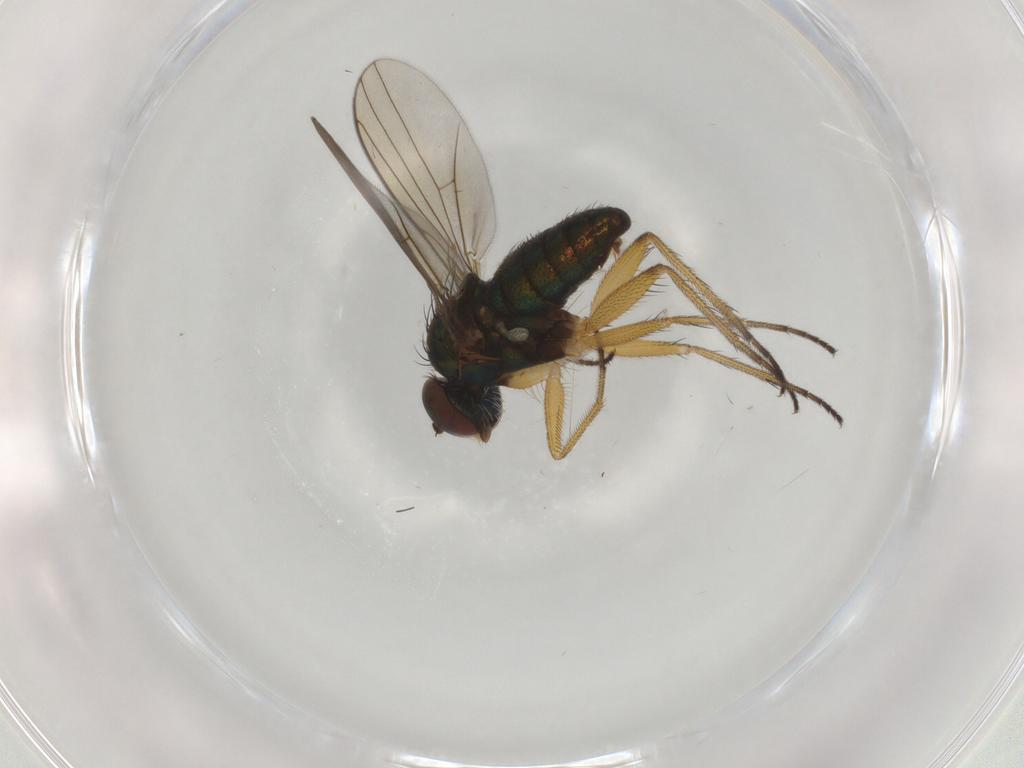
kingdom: Animalia
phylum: Arthropoda
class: Insecta
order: Diptera
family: Dolichopodidae
